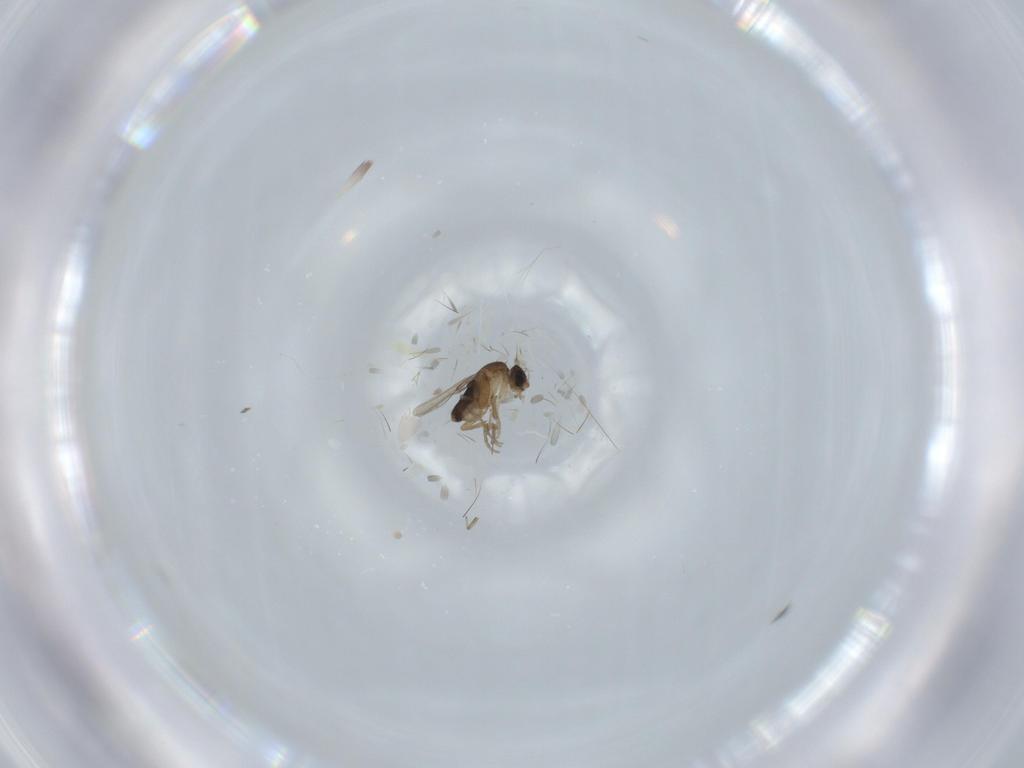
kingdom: Animalia
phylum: Arthropoda
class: Insecta
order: Diptera
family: Phoridae
